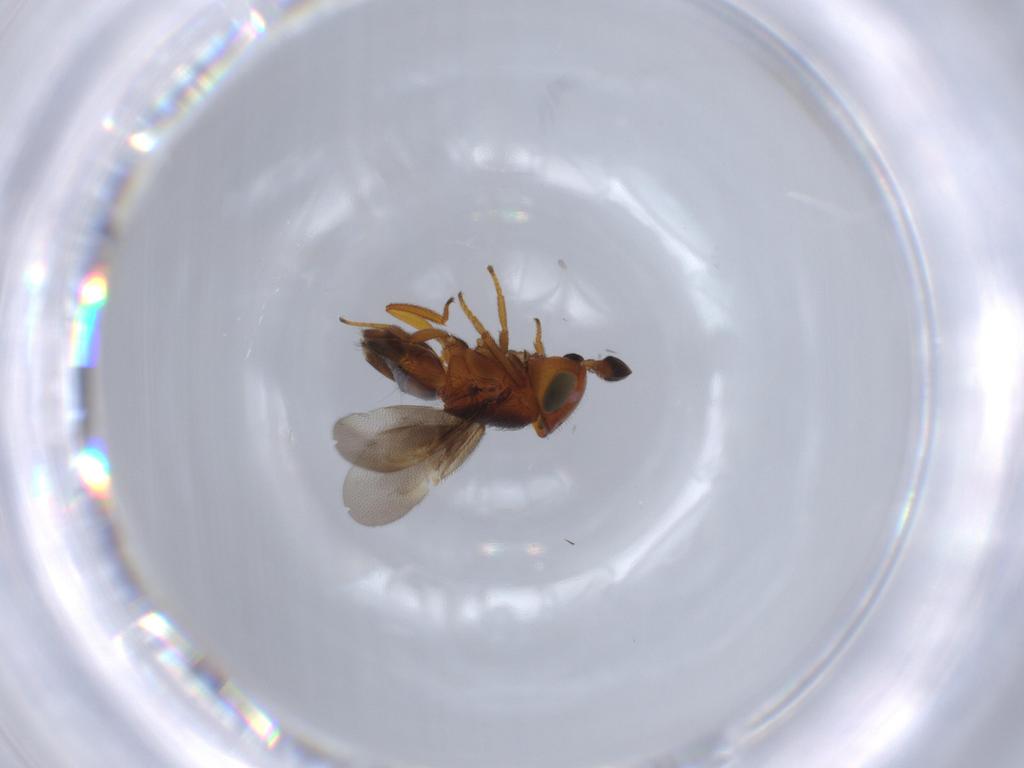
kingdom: Animalia
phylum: Arthropoda
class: Insecta
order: Hymenoptera
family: Encyrtidae
